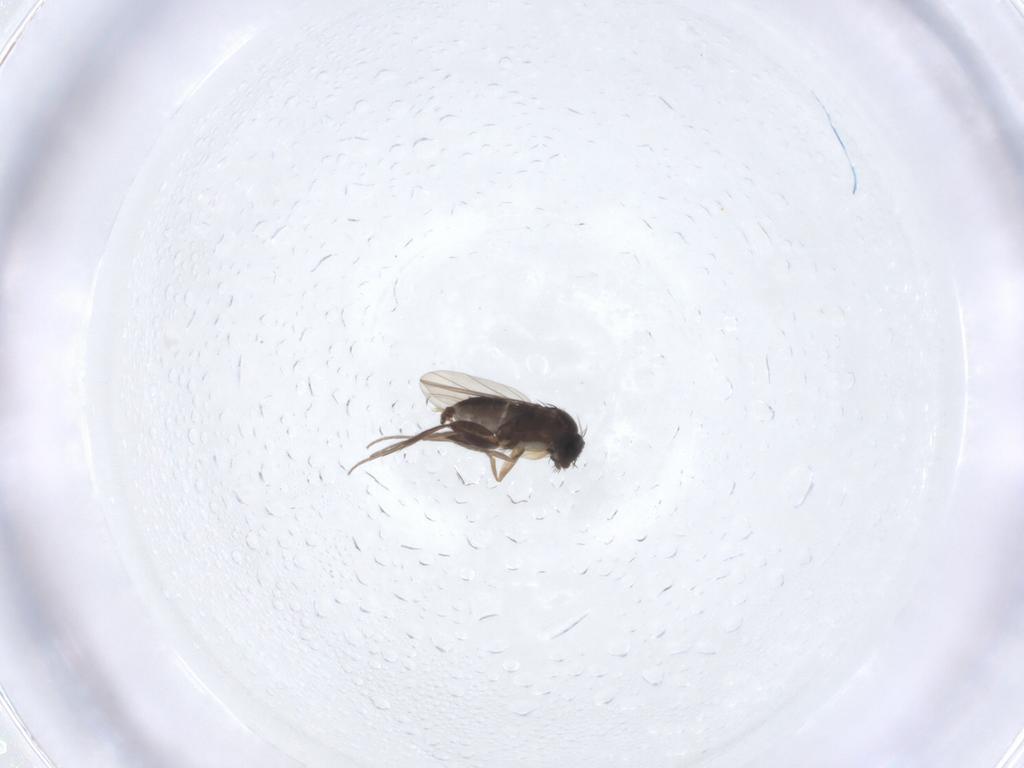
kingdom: Animalia
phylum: Arthropoda
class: Insecta
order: Diptera
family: Phoridae
